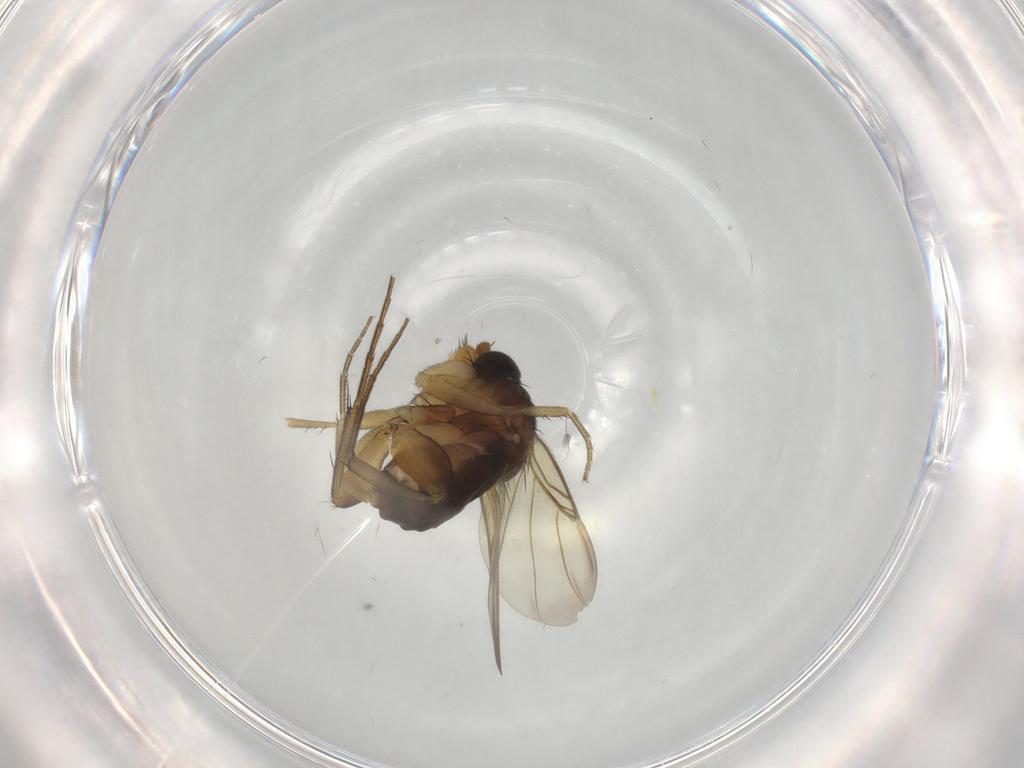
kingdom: Animalia
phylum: Arthropoda
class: Insecta
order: Diptera
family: Phoridae
